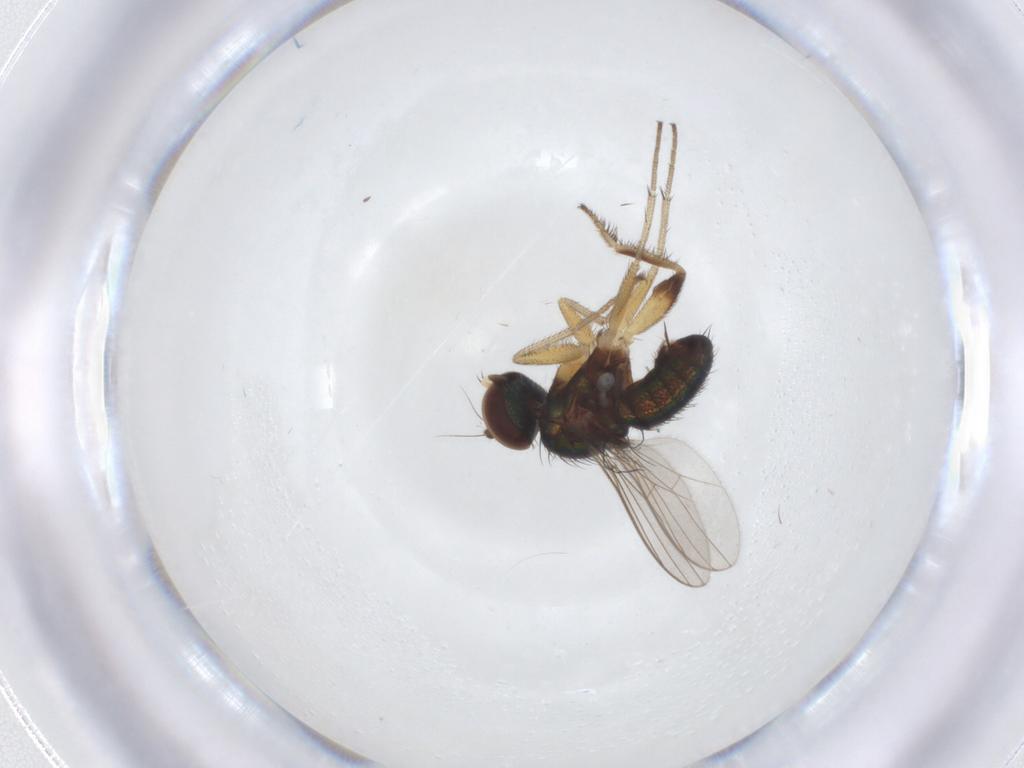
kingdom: Animalia
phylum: Arthropoda
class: Insecta
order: Diptera
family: Dolichopodidae
